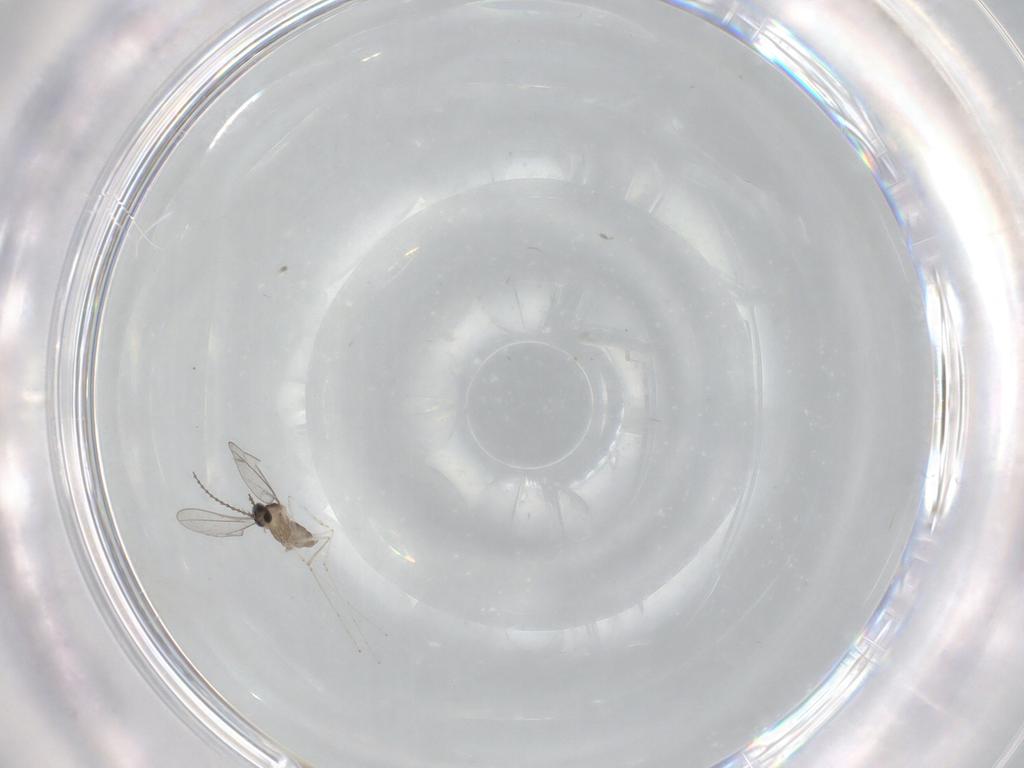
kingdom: Animalia
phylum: Arthropoda
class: Insecta
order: Diptera
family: Cecidomyiidae
